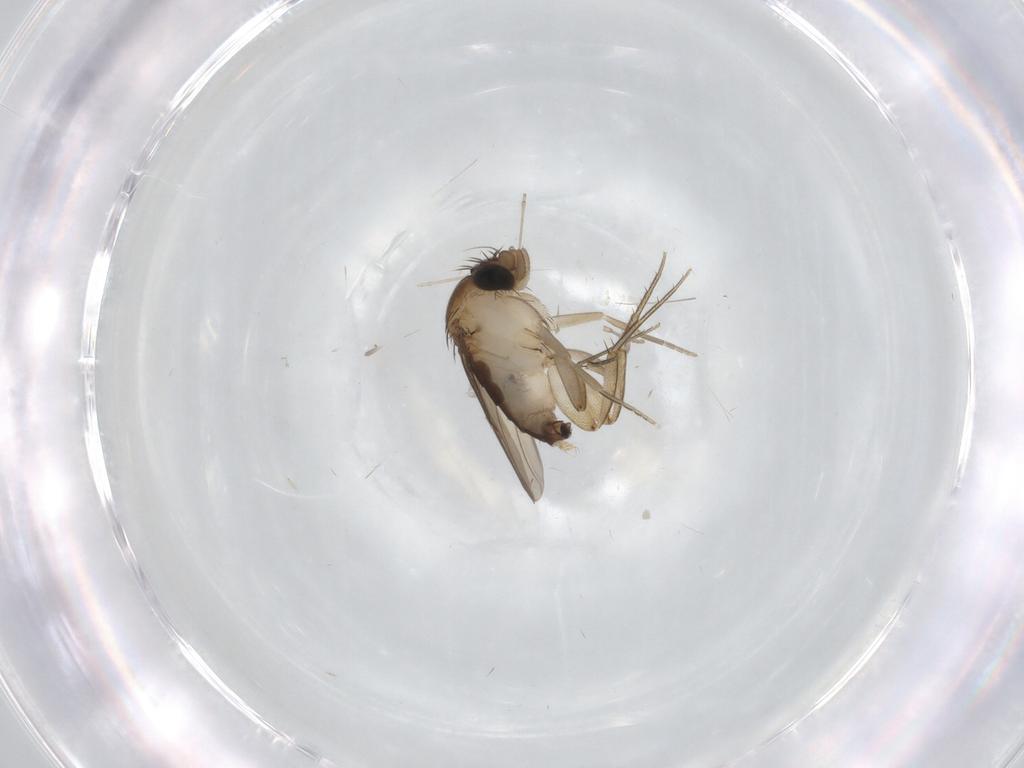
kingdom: Animalia
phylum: Arthropoda
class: Insecta
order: Diptera
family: Phoridae
